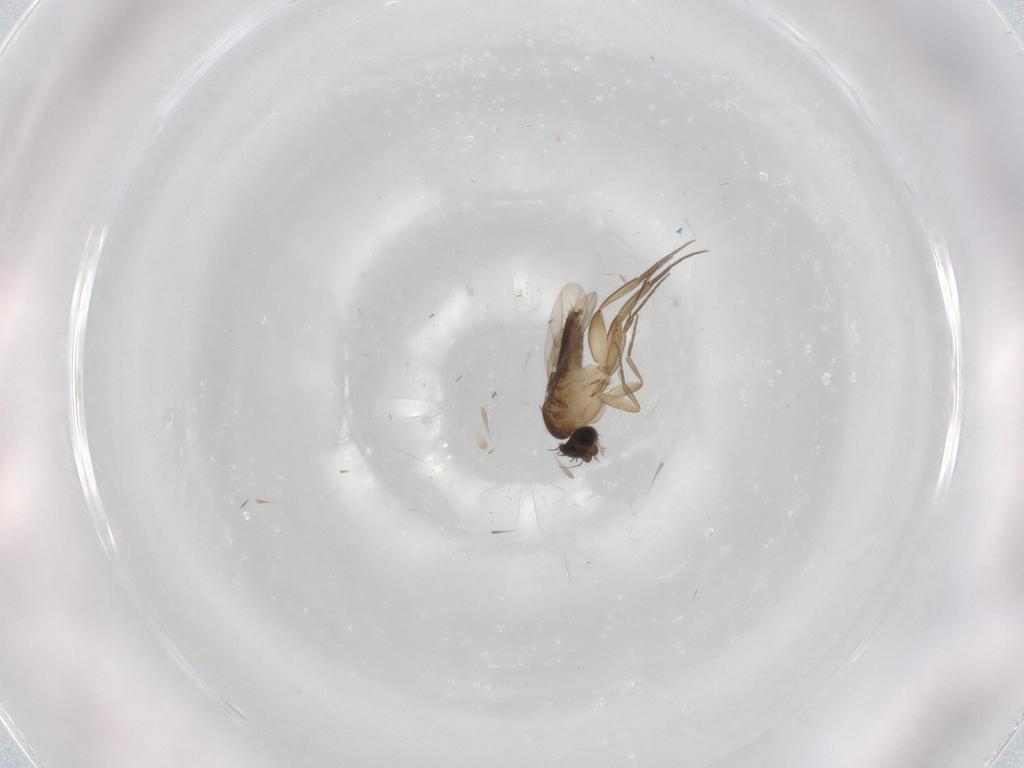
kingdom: Animalia
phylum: Arthropoda
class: Insecta
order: Diptera
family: Phoridae
